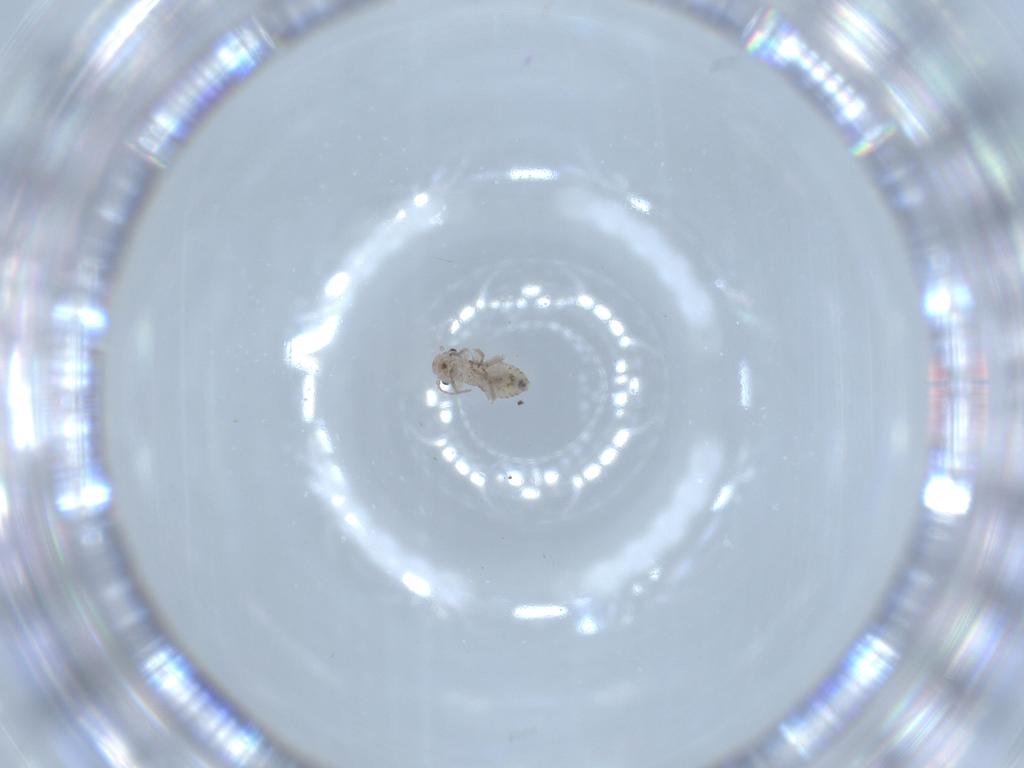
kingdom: Animalia
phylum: Arthropoda
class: Insecta
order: Psocodea
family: Psocidae
